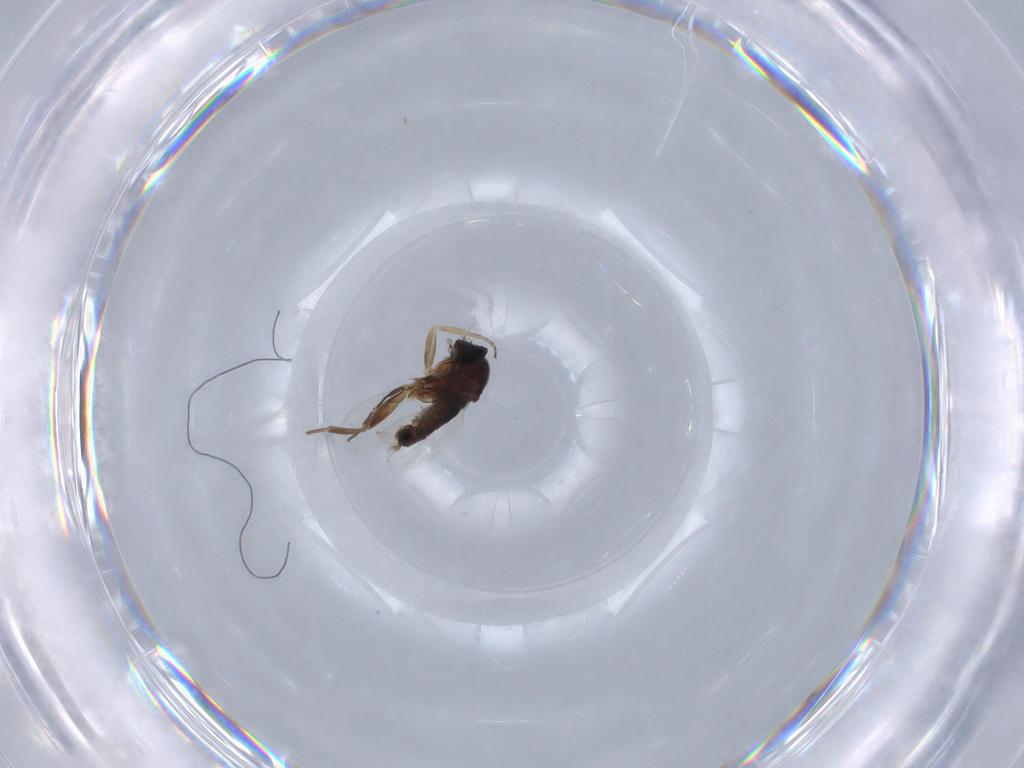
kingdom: Animalia
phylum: Arthropoda
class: Insecta
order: Diptera
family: Phoridae
